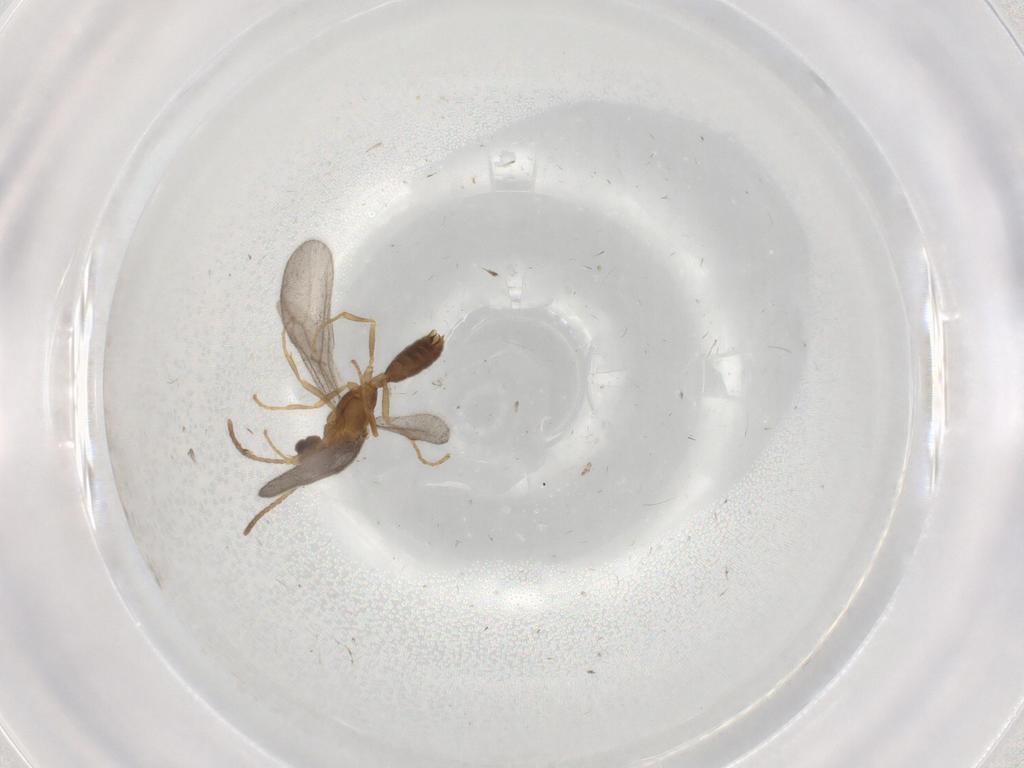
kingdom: Animalia
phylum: Arthropoda
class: Insecta
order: Hymenoptera
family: Formicidae
